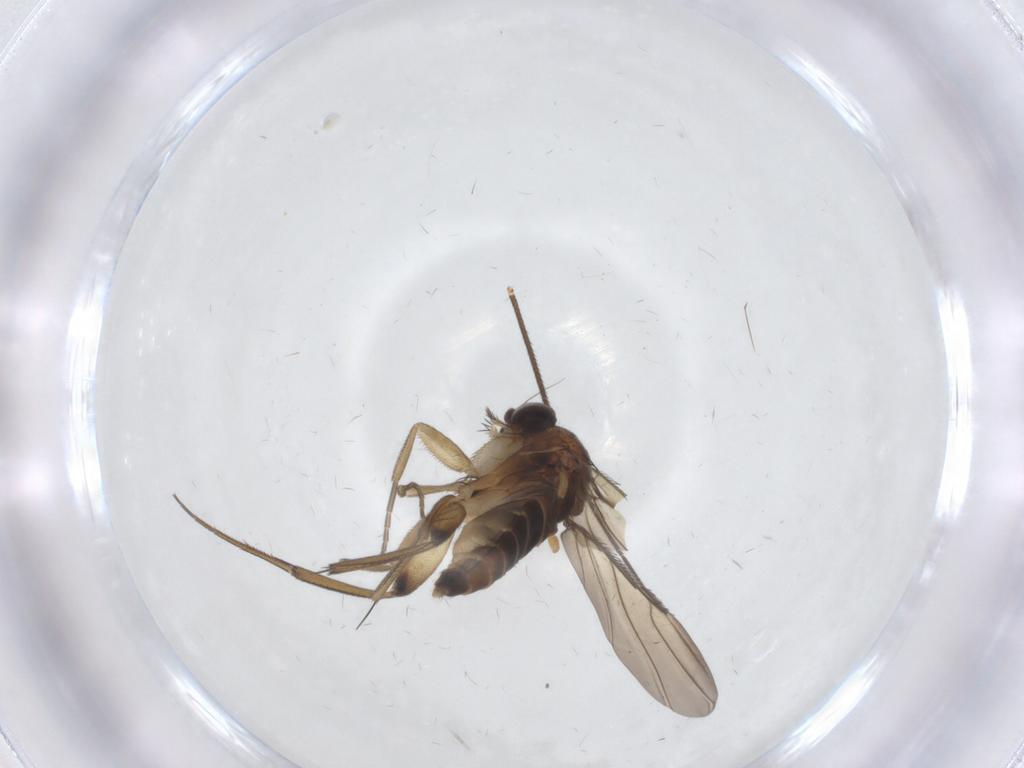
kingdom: Animalia
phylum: Arthropoda
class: Insecta
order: Diptera
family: Phoridae
